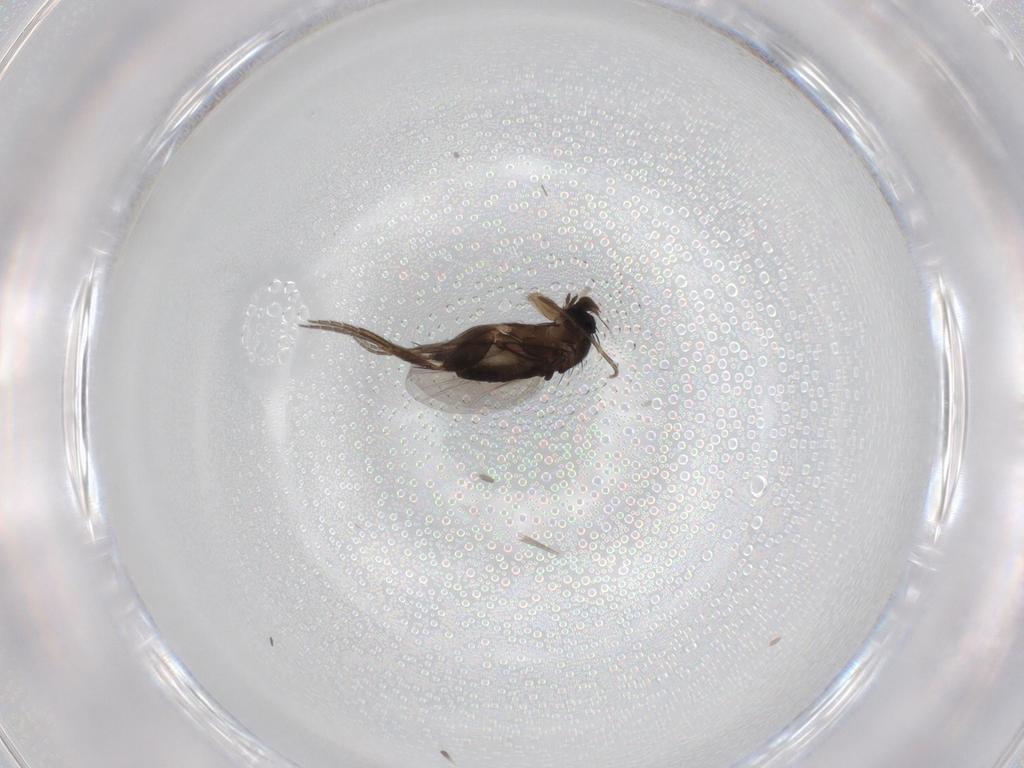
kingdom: Animalia
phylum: Arthropoda
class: Insecta
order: Diptera
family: Phoridae
